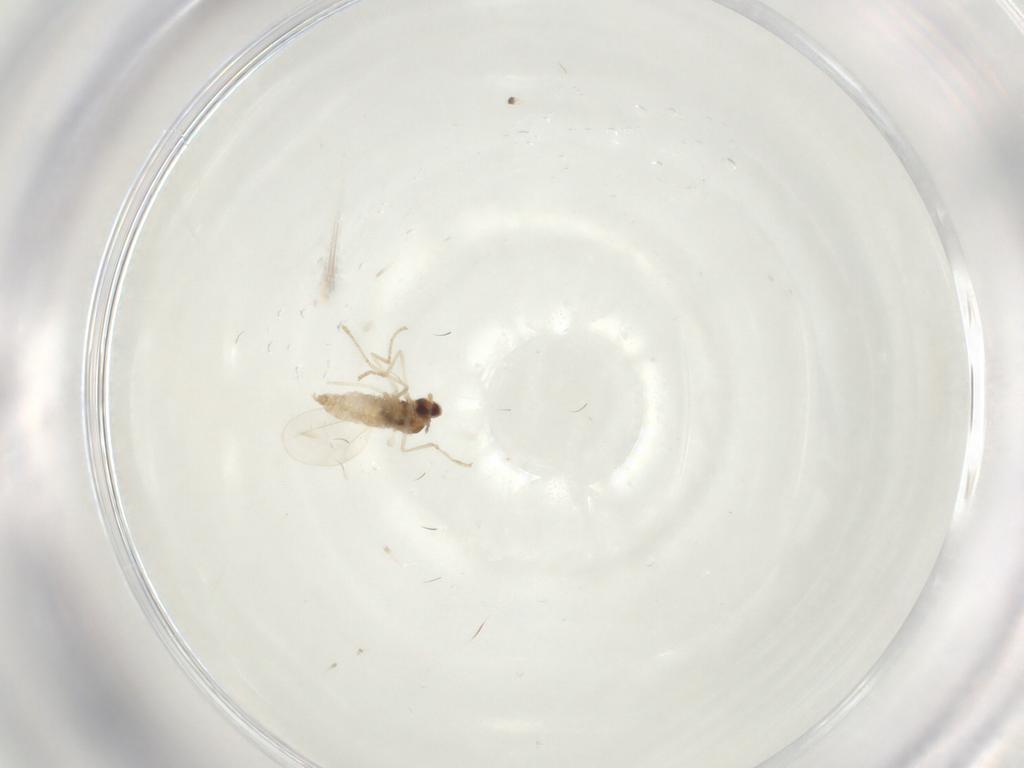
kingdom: Animalia
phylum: Arthropoda
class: Insecta
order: Diptera
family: Cecidomyiidae
